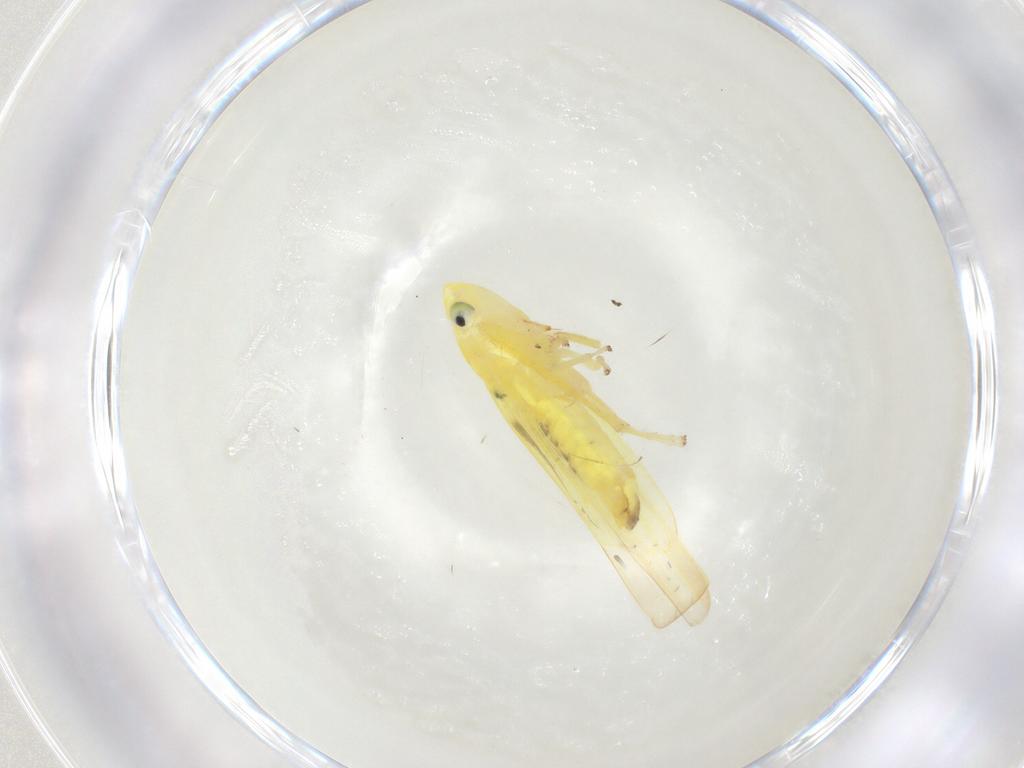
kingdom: Animalia
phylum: Arthropoda
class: Insecta
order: Hemiptera
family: Cicadellidae
